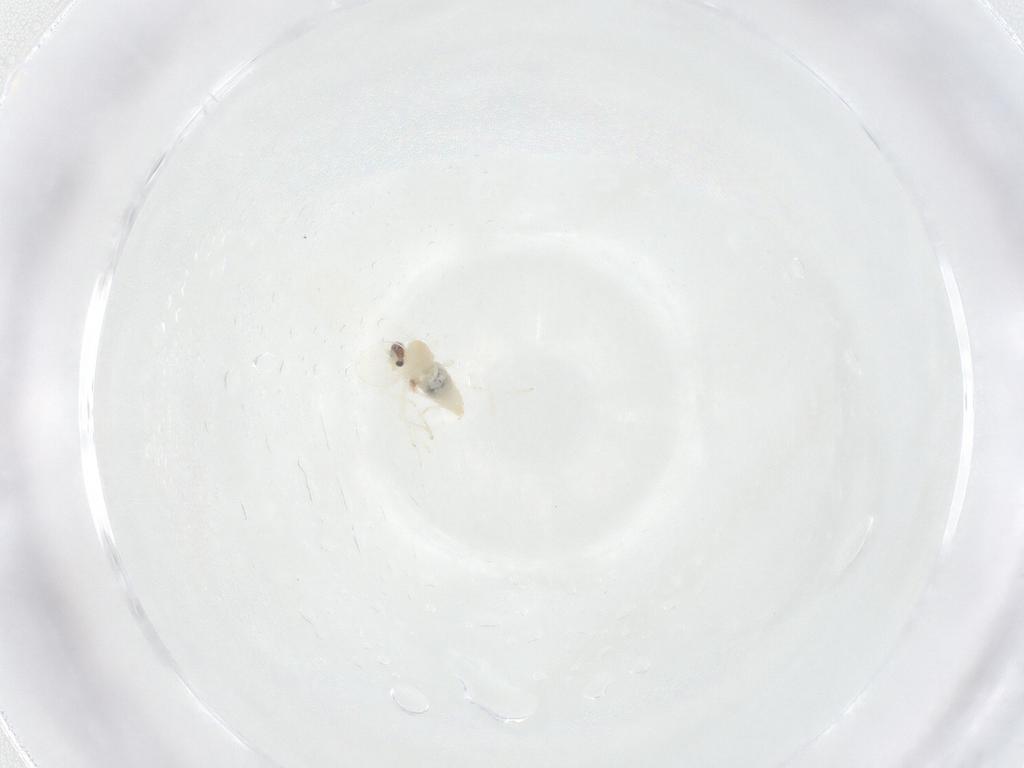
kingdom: Animalia
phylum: Arthropoda
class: Insecta
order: Diptera
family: Cecidomyiidae
